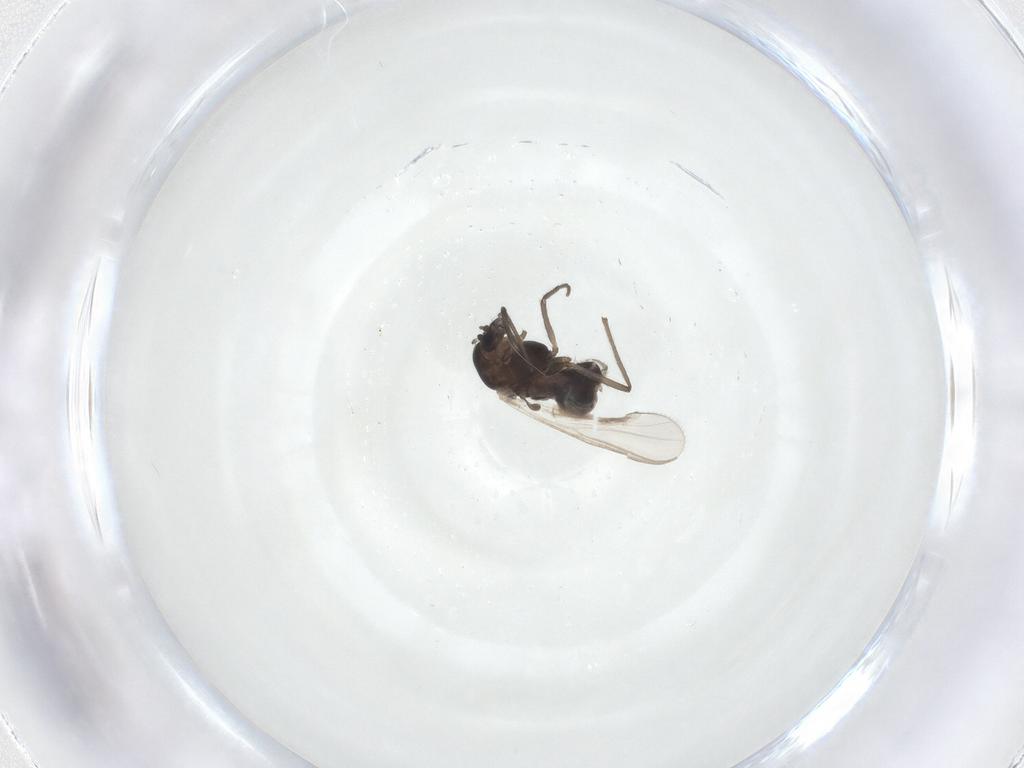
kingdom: Animalia
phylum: Arthropoda
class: Insecta
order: Diptera
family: Cecidomyiidae
